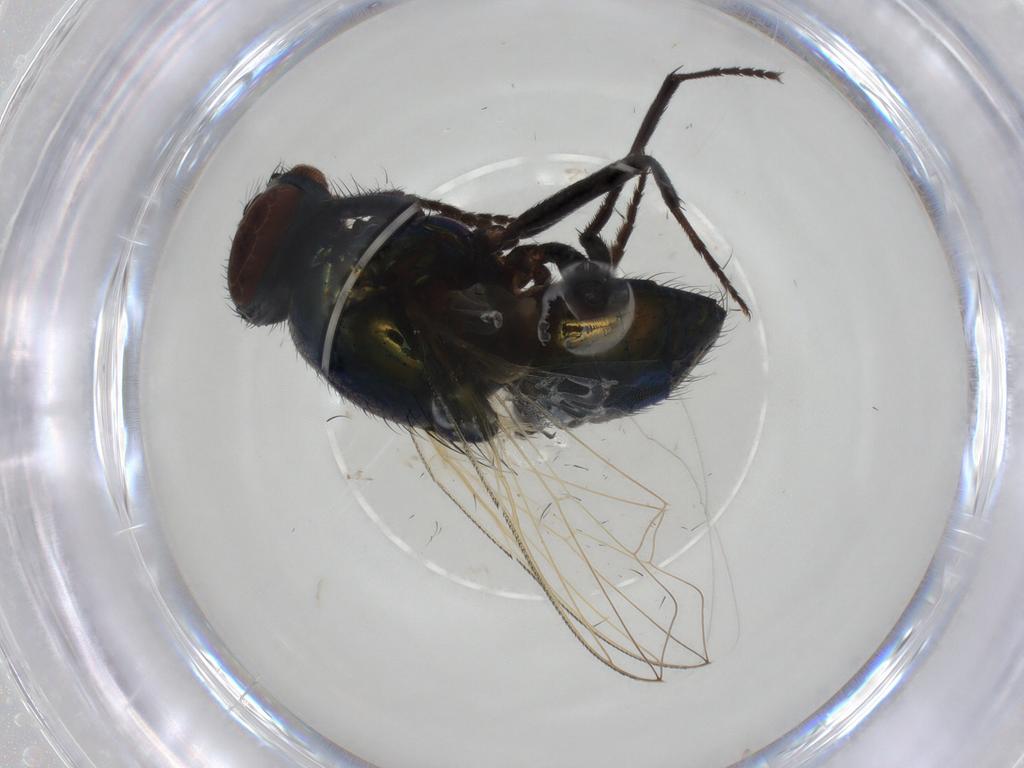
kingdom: Animalia
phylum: Arthropoda
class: Insecta
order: Diptera
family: Muscidae
